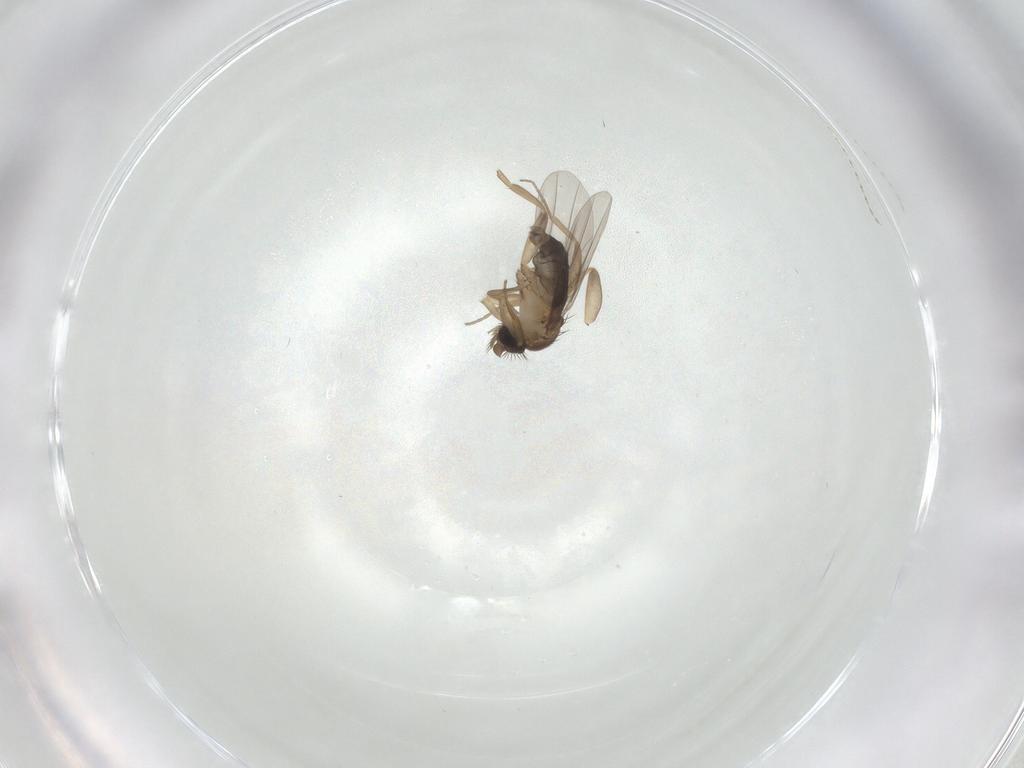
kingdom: Animalia
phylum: Arthropoda
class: Insecta
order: Diptera
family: Phoridae
